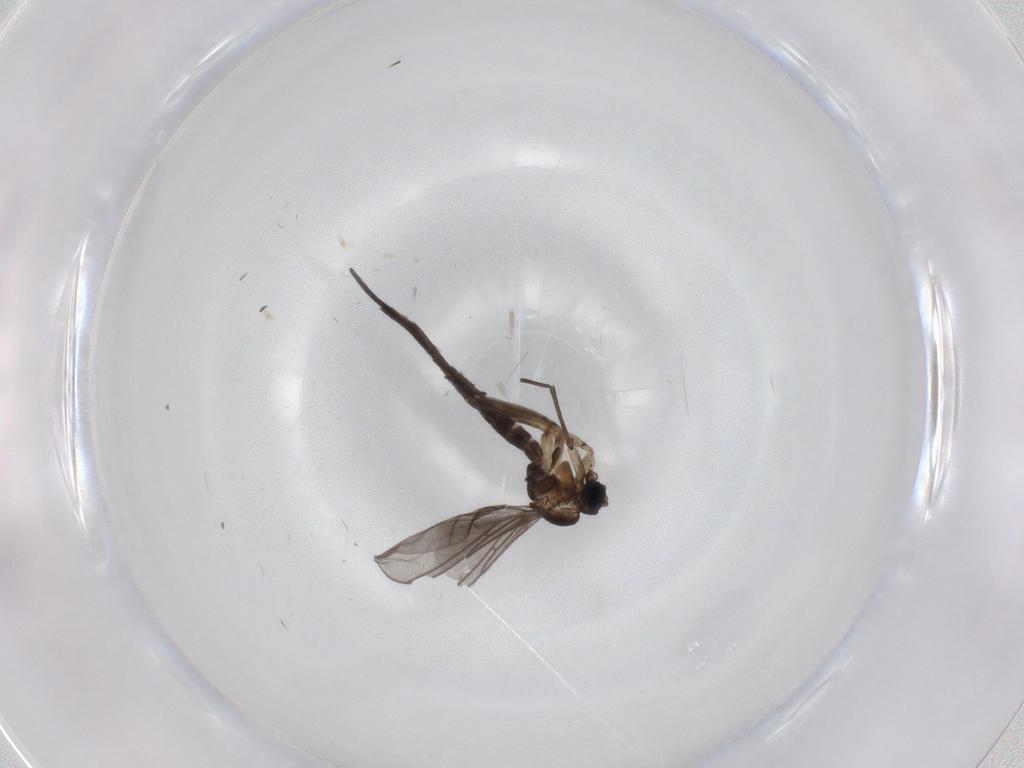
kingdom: Animalia
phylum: Arthropoda
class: Insecta
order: Diptera
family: Sciaridae
